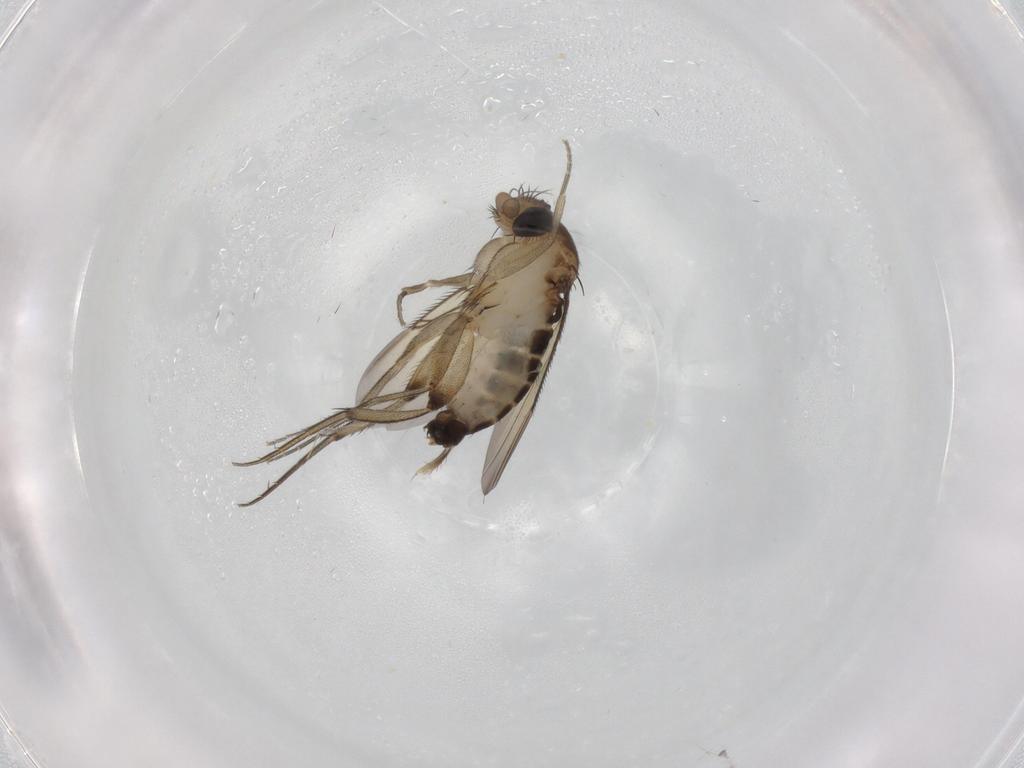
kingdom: Animalia
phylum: Arthropoda
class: Insecta
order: Diptera
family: Phoridae
